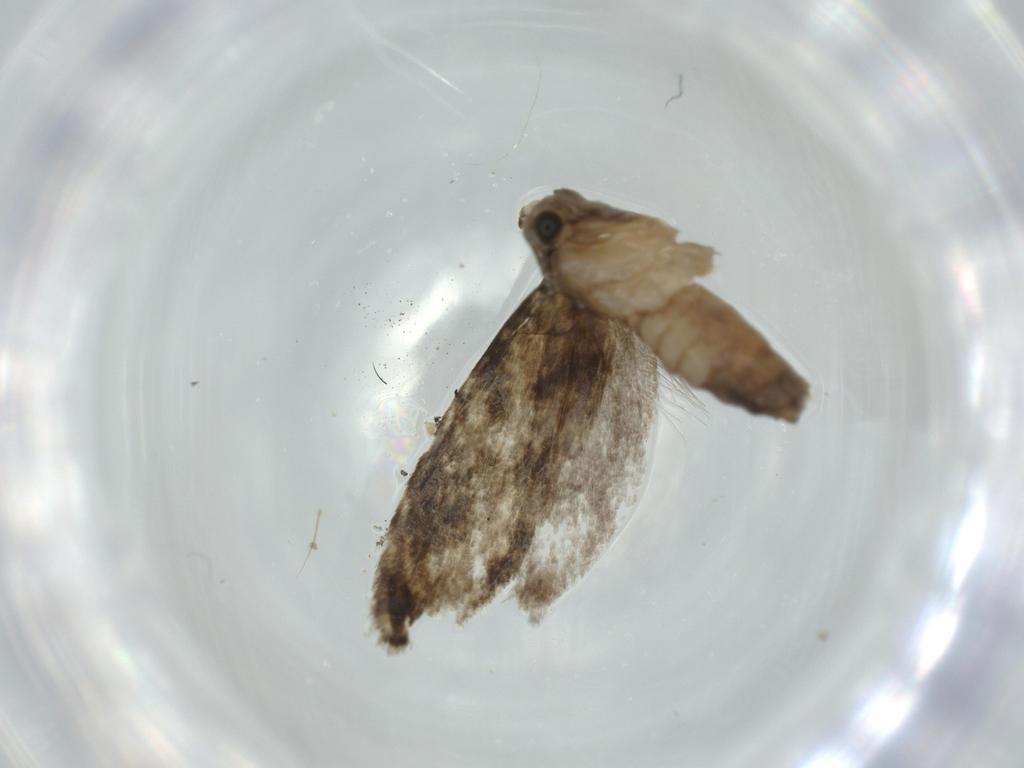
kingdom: Animalia
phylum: Arthropoda
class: Insecta
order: Lepidoptera
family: Tineidae
